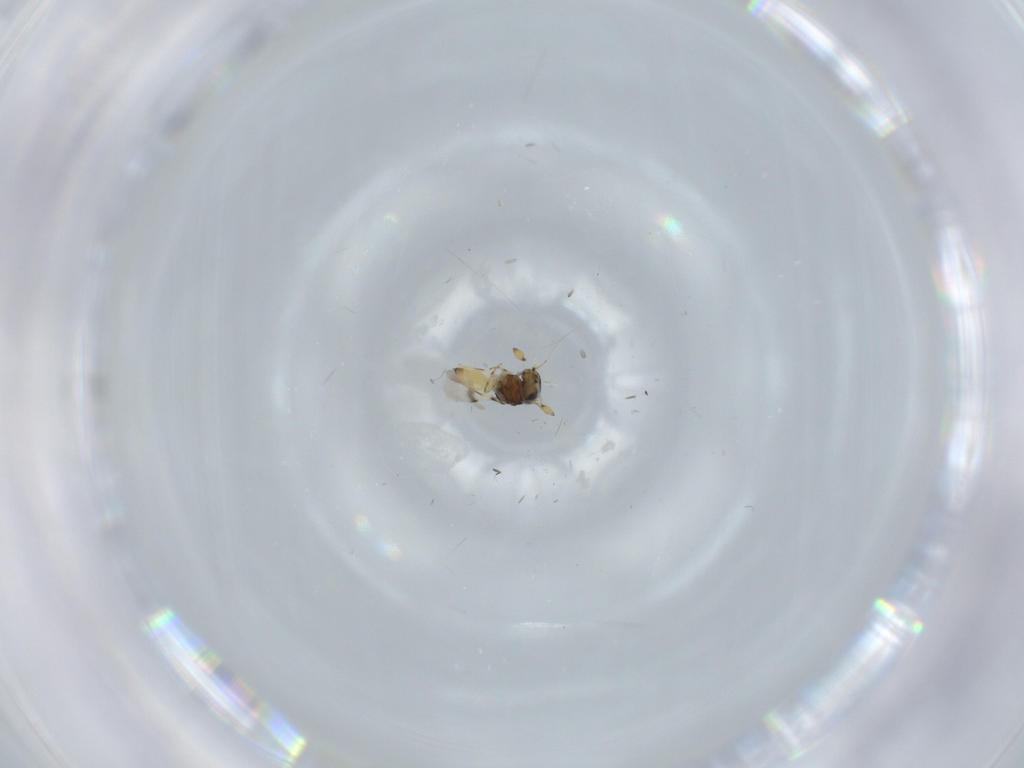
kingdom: Animalia
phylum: Arthropoda
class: Insecta
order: Hymenoptera
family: Scelionidae
